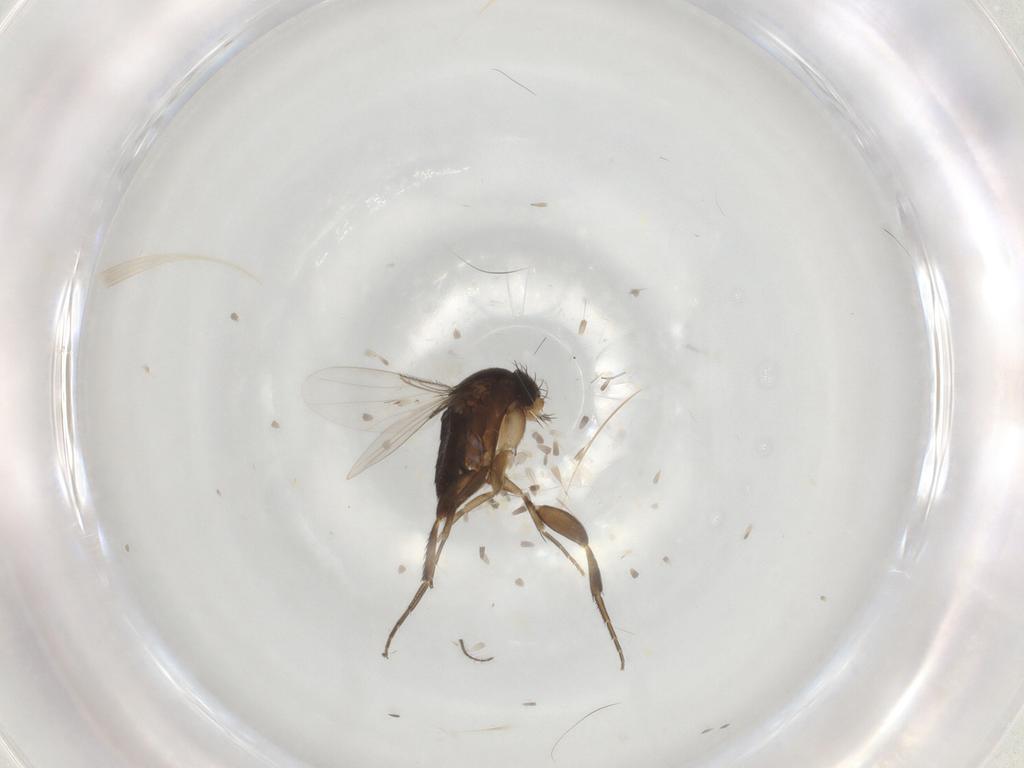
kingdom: Animalia
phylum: Arthropoda
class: Insecta
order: Diptera
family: Phoridae
